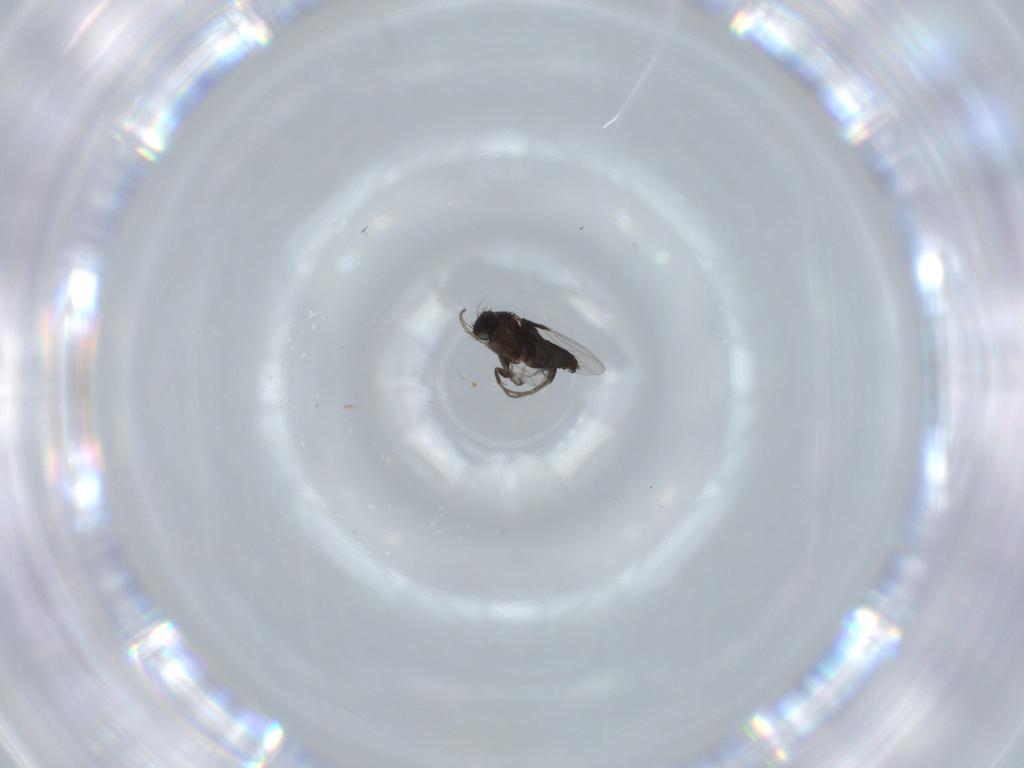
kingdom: Animalia
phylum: Arthropoda
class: Insecta
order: Diptera
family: Phoridae
